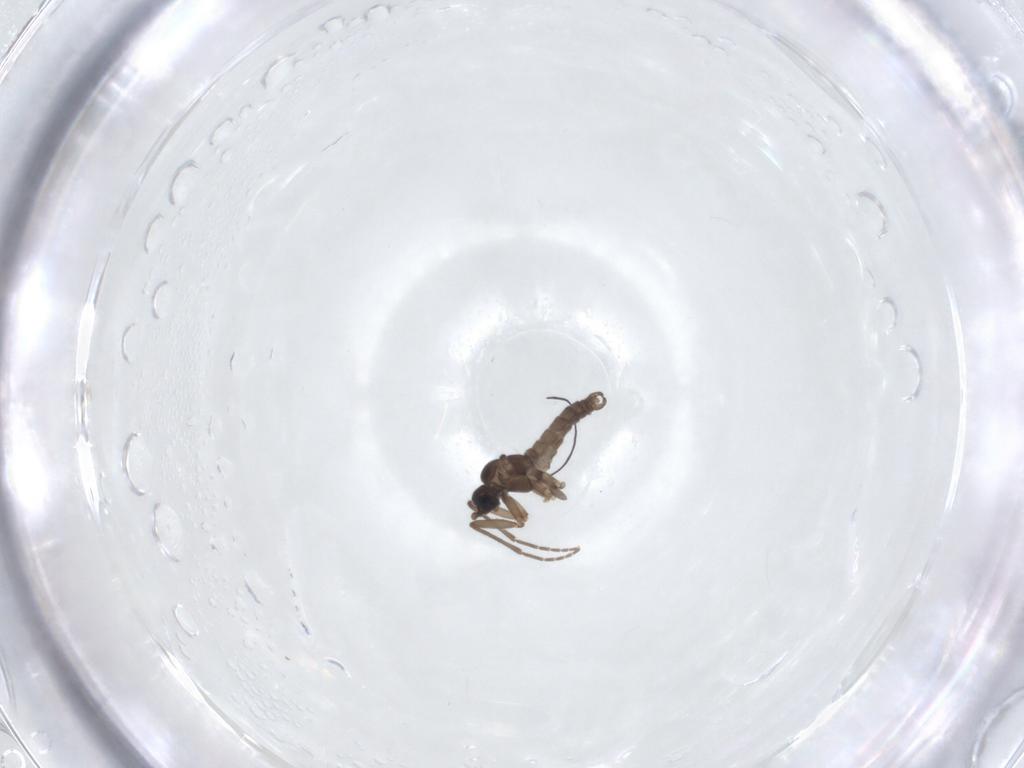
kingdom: Animalia
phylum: Arthropoda
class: Insecta
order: Diptera
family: Sciaridae
